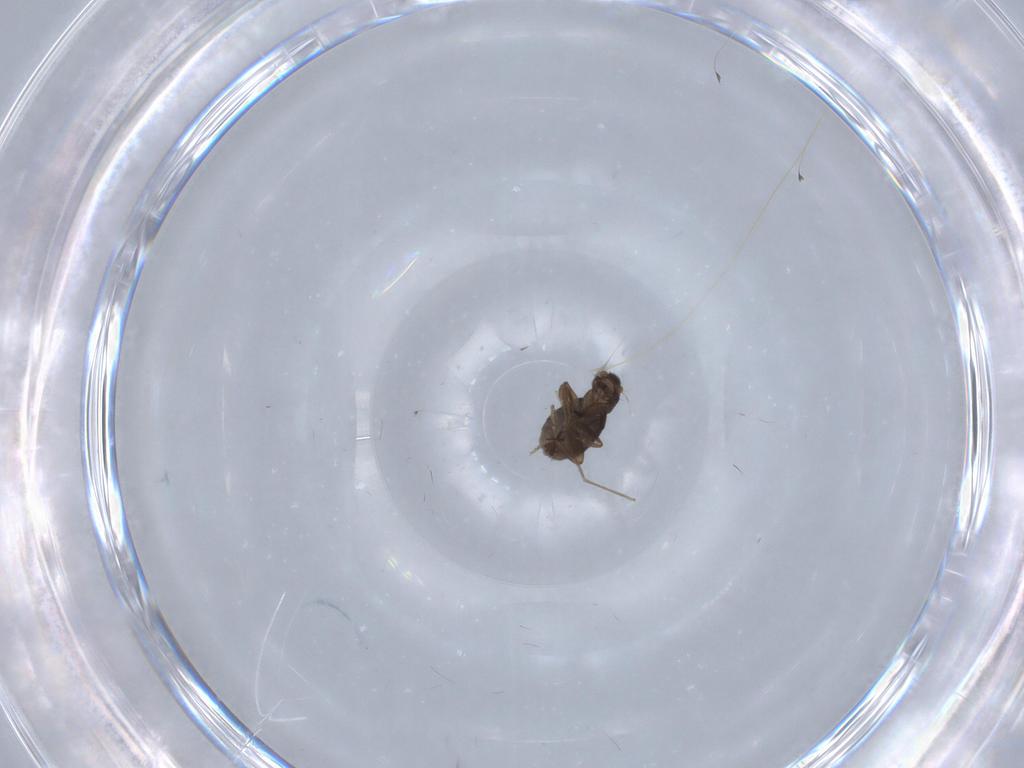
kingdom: Animalia
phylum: Arthropoda
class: Insecta
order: Diptera
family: Phoridae
